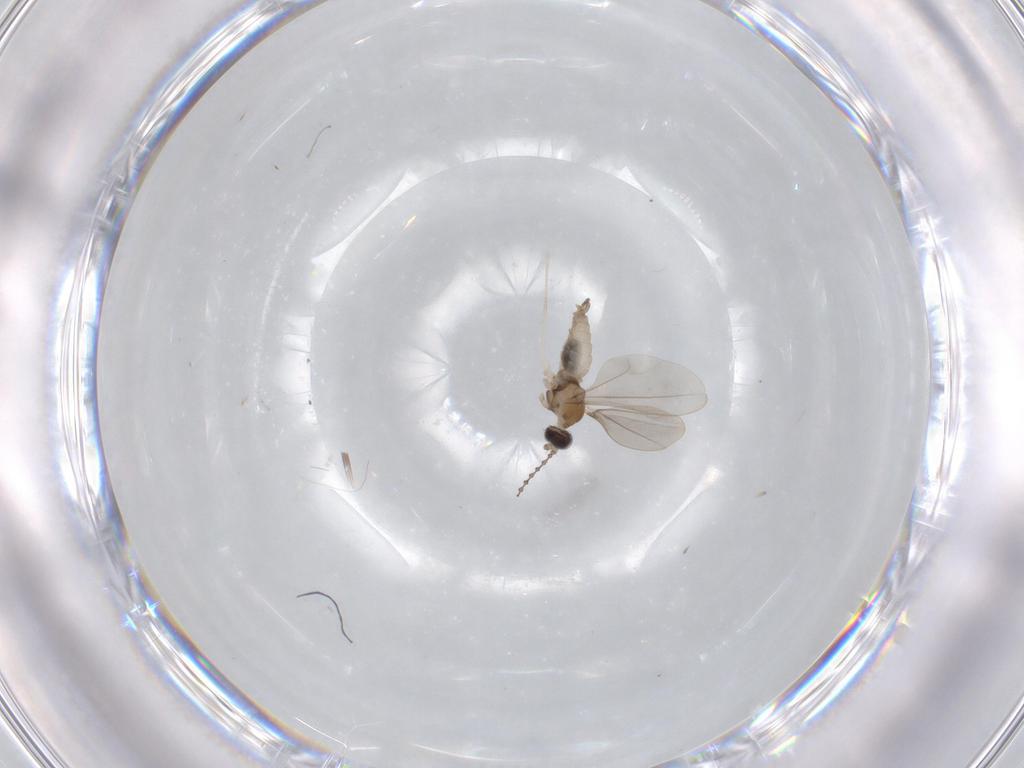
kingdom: Animalia
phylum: Arthropoda
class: Insecta
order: Diptera
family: Cecidomyiidae
